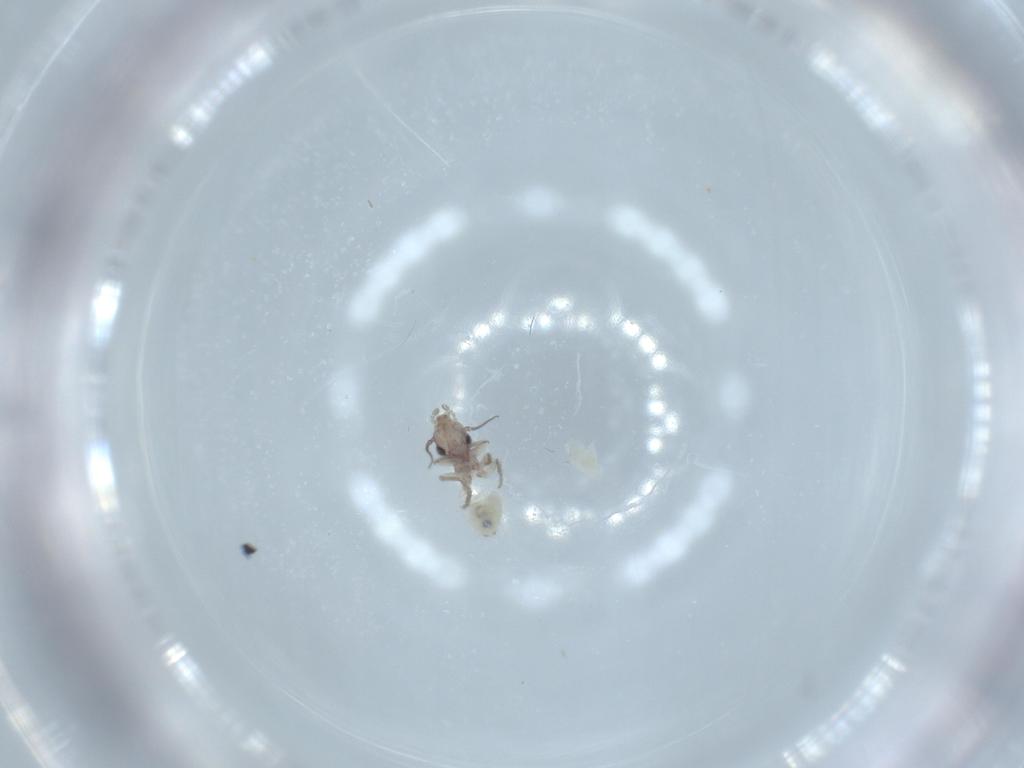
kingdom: Animalia
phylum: Arthropoda
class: Insecta
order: Psocodea
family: Lepidopsocidae
